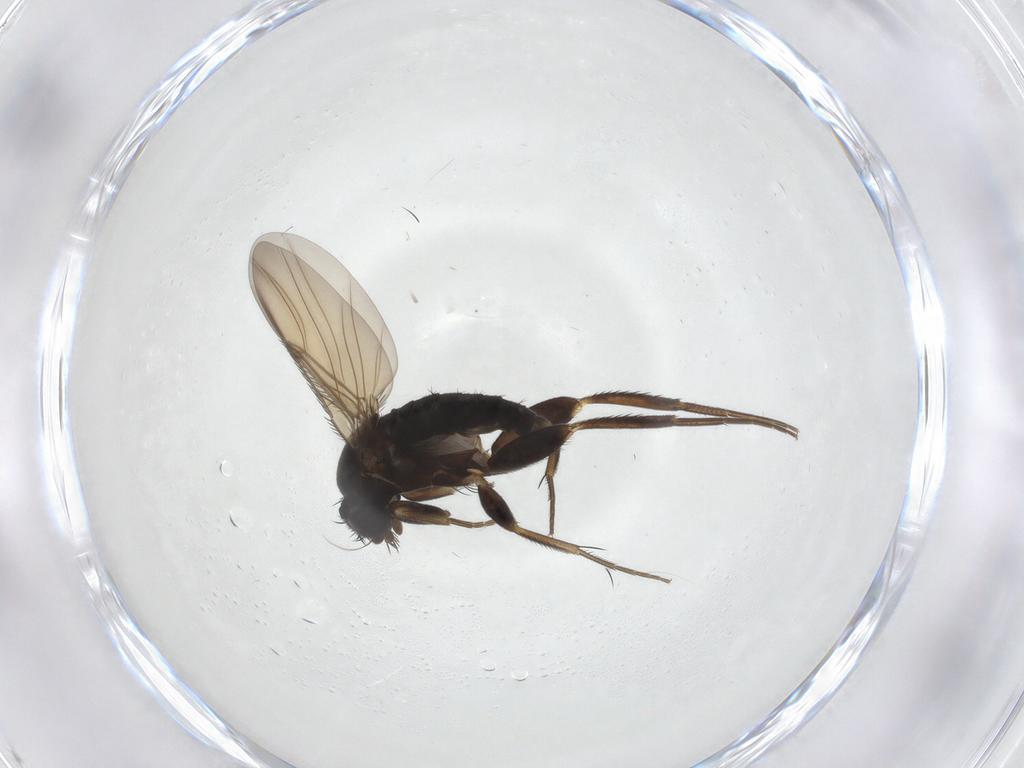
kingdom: Animalia
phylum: Arthropoda
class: Insecta
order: Diptera
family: Phoridae
